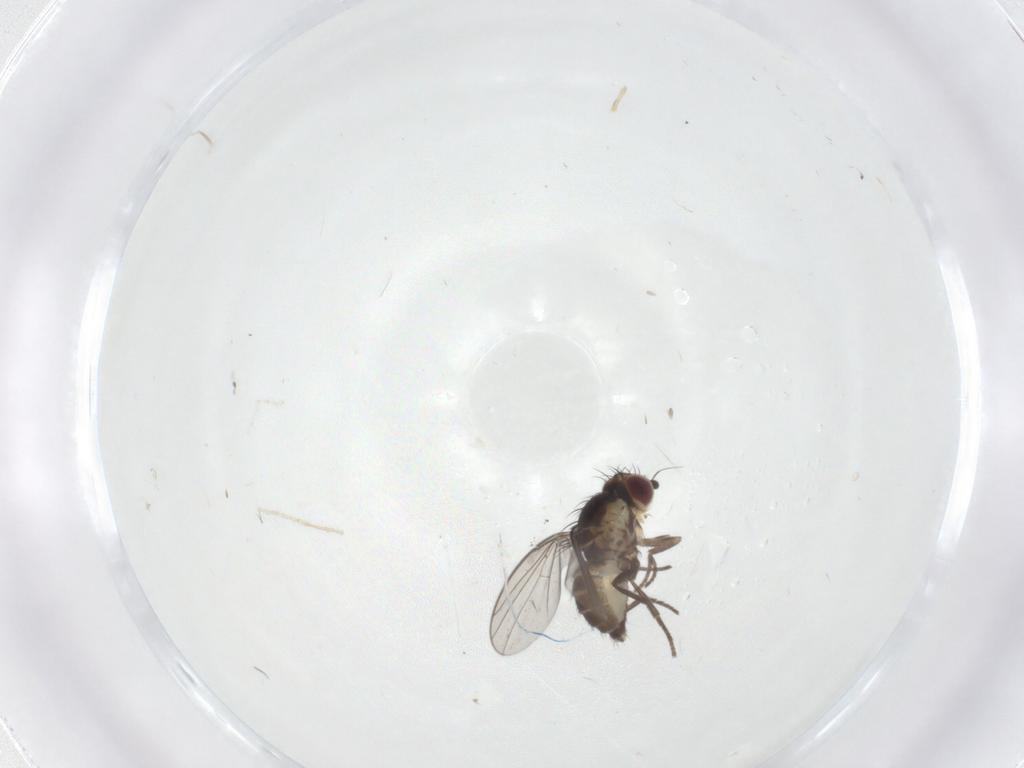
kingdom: Animalia
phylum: Arthropoda
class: Insecta
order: Diptera
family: Agromyzidae
